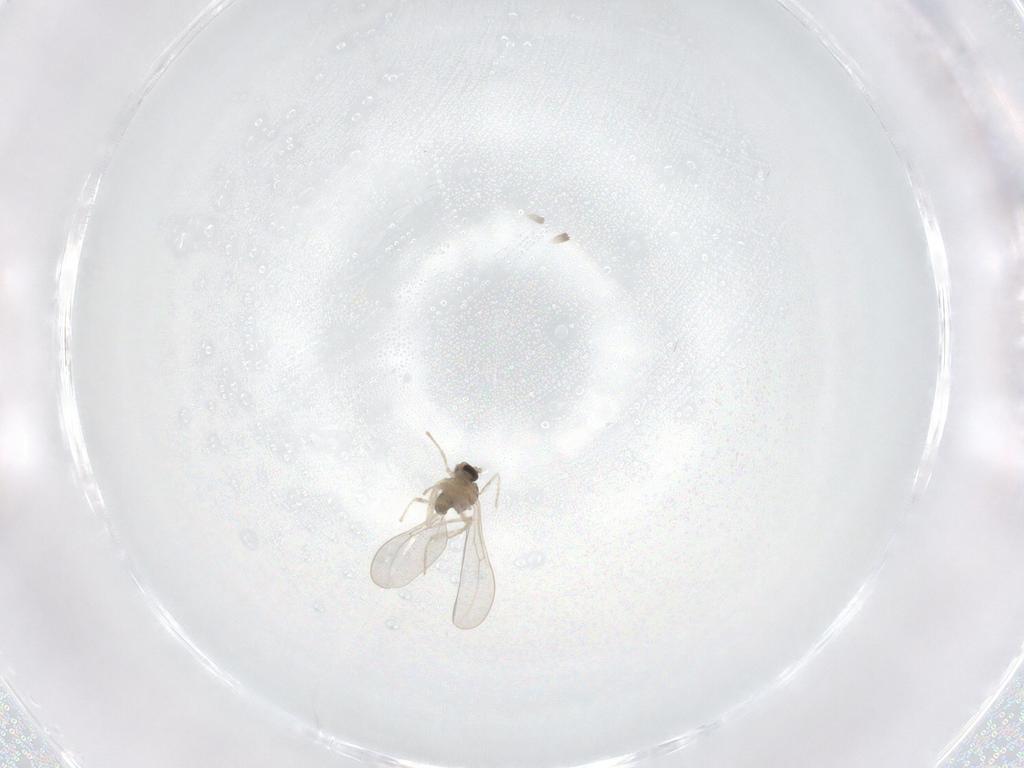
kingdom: Animalia
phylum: Arthropoda
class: Insecta
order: Diptera
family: Cecidomyiidae
